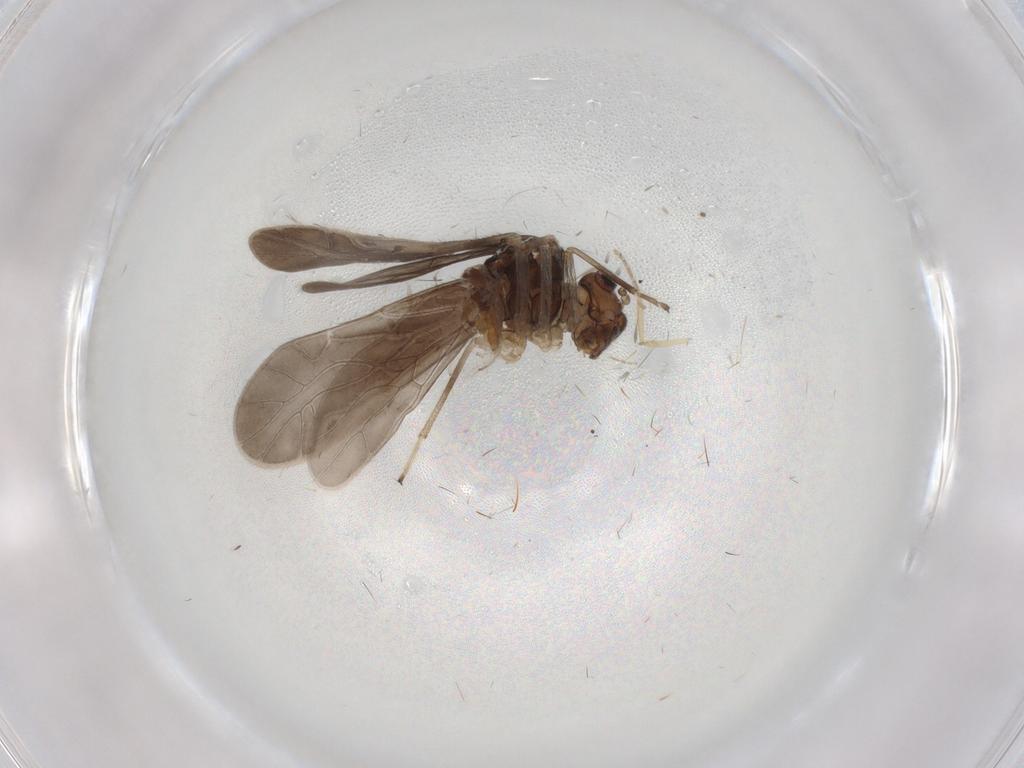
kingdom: Animalia
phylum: Arthropoda
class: Insecta
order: Psocodea
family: Caeciliusidae
